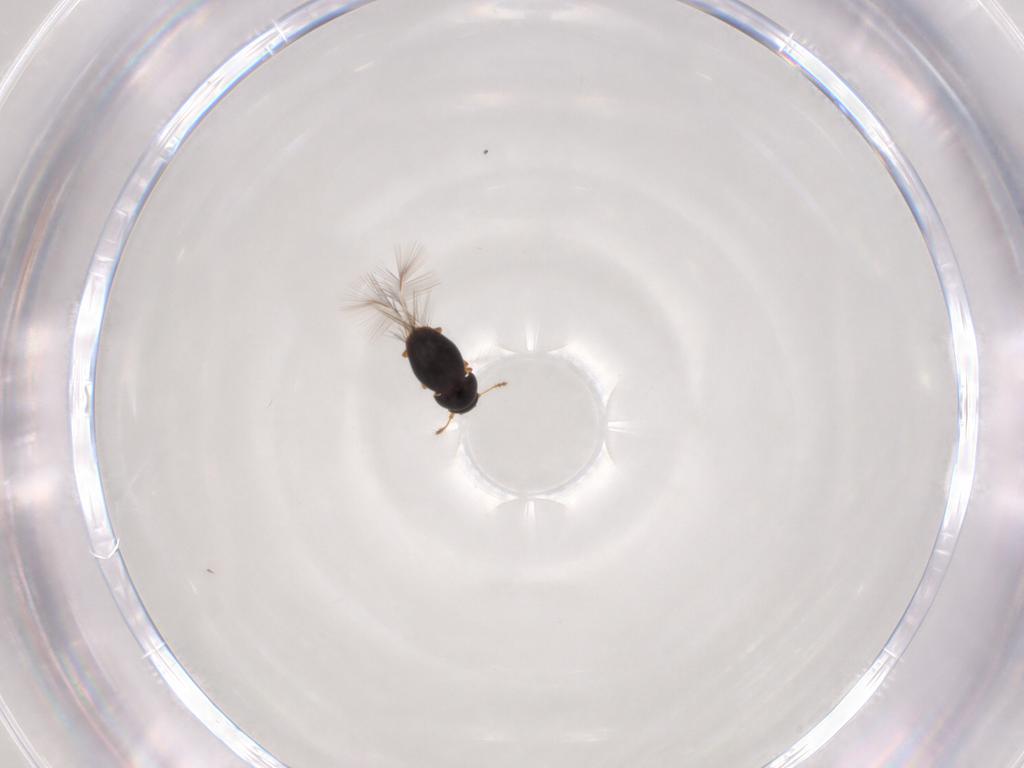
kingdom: Animalia
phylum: Arthropoda
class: Insecta
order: Coleoptera
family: Ptiliidae
